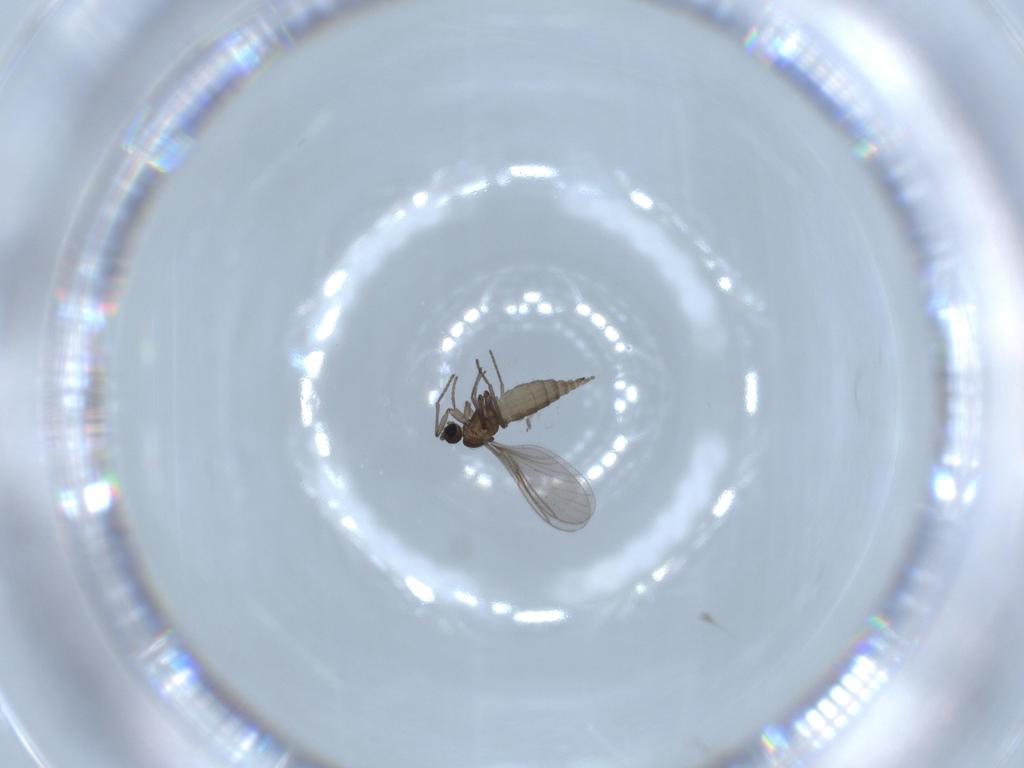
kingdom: Animalia
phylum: Arthropoda
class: Insecta
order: Diptera
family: Sciaridae
